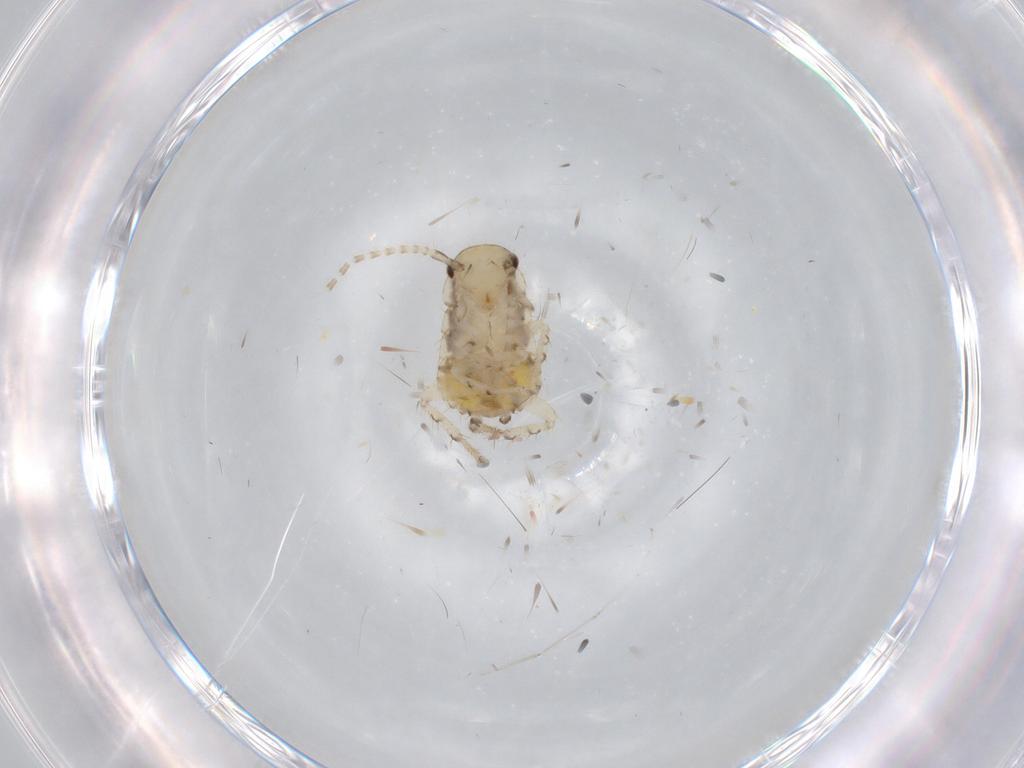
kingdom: Animalia
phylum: Arthropoda
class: Insecta
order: Blattodea
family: Ectobiidae
